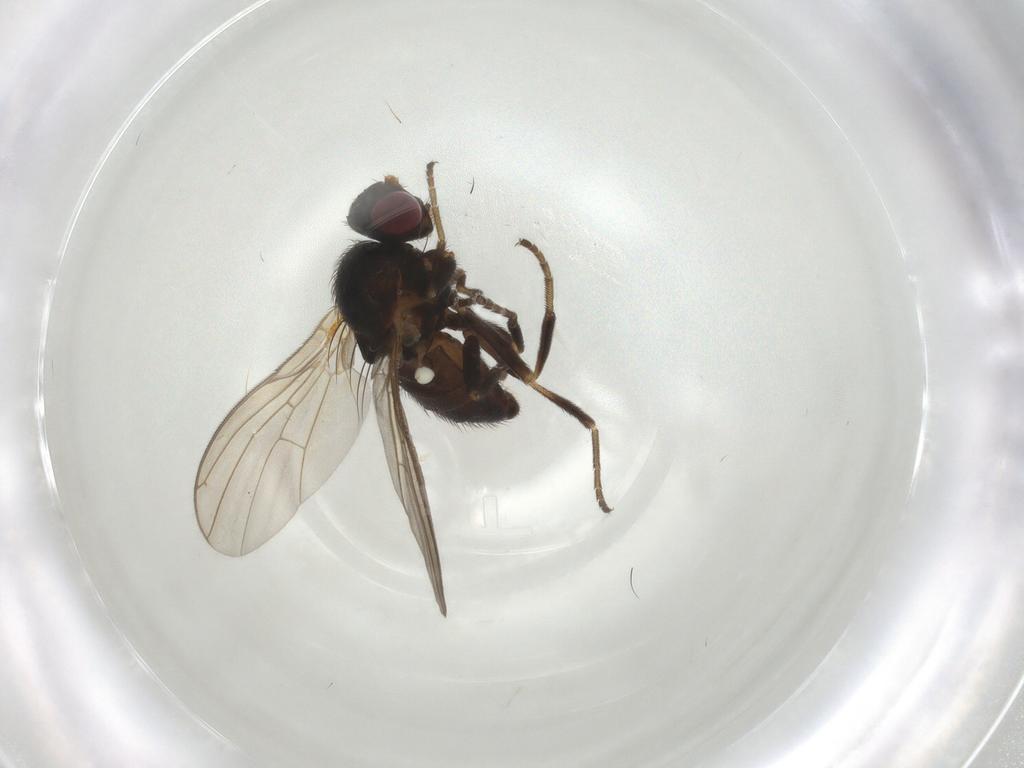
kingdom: Animalia
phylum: Arthropoda
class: Insecta
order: Diptera
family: Agromyzidae
